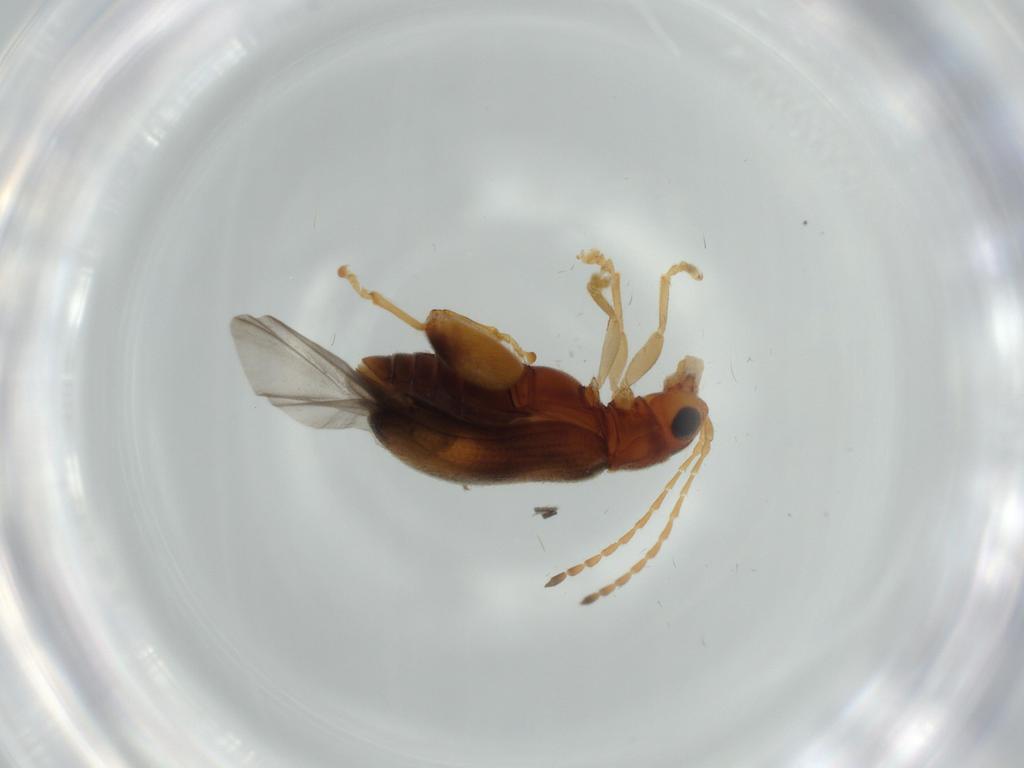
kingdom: Animalia
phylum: Arthropoda
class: Insecta
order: Coleoptera
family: Chrysomelidae
